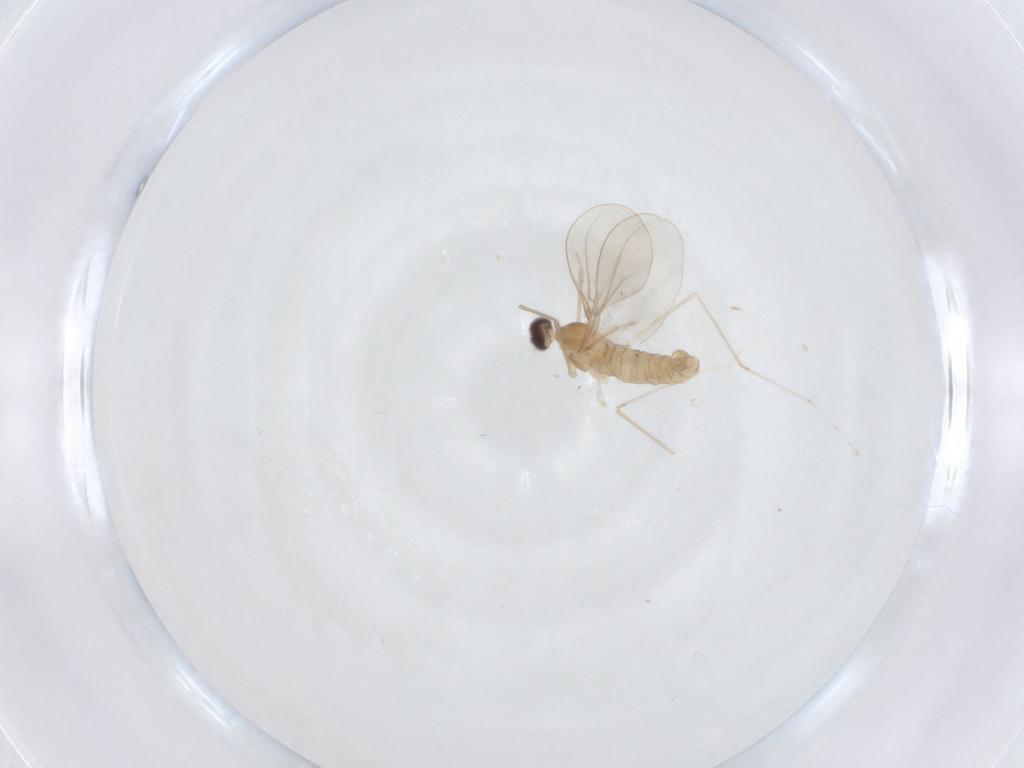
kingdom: Animalia
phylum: Arthropoda
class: Insecta
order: Diptera
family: Cecidomyiidae
